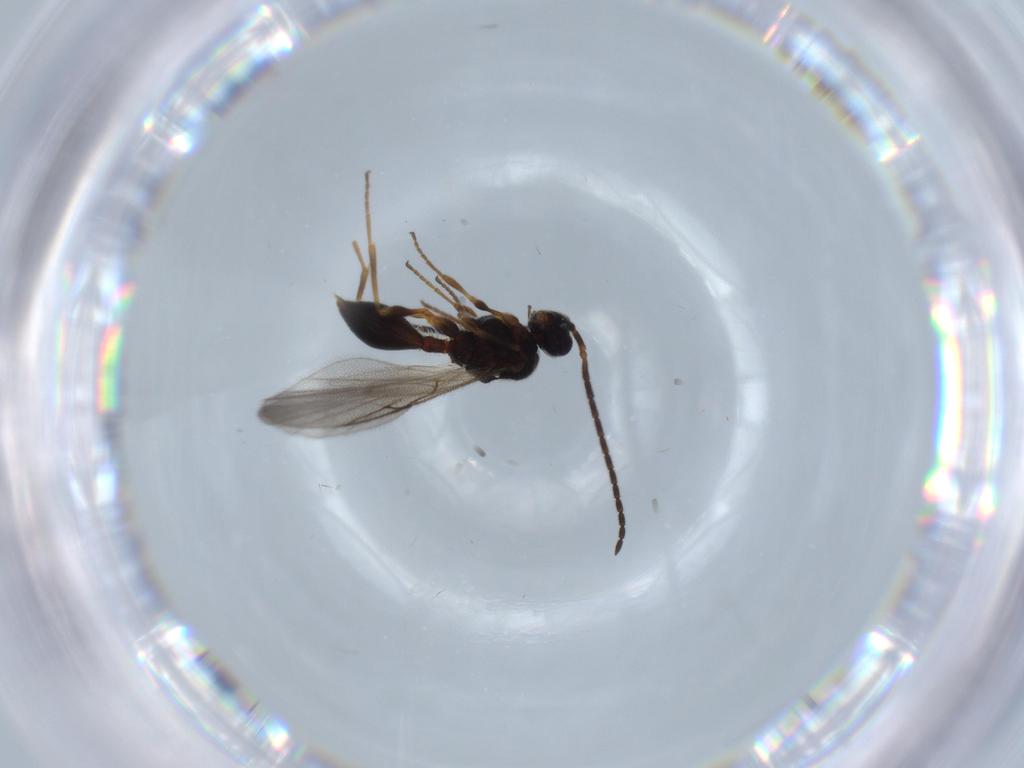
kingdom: Animalia
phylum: Arthropoda
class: Insecta
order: Hymenoptera
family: Diapriidae
